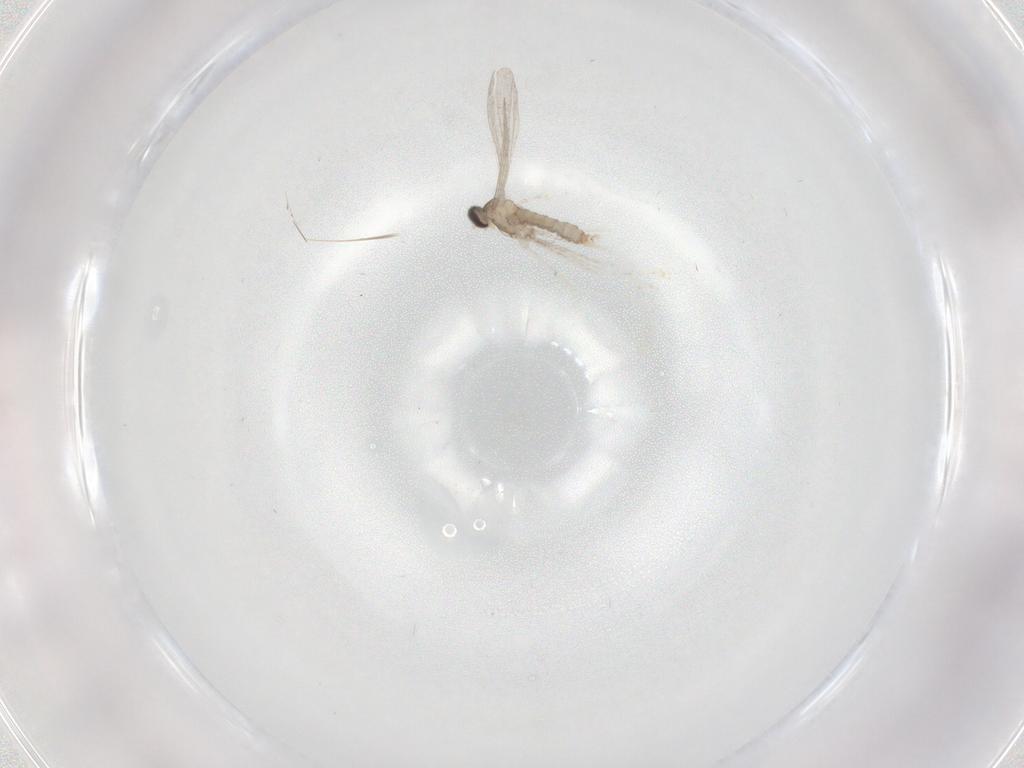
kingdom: Animalia
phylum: Arthropoda
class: Insecta
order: Diptera
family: Cecidomyiidae
